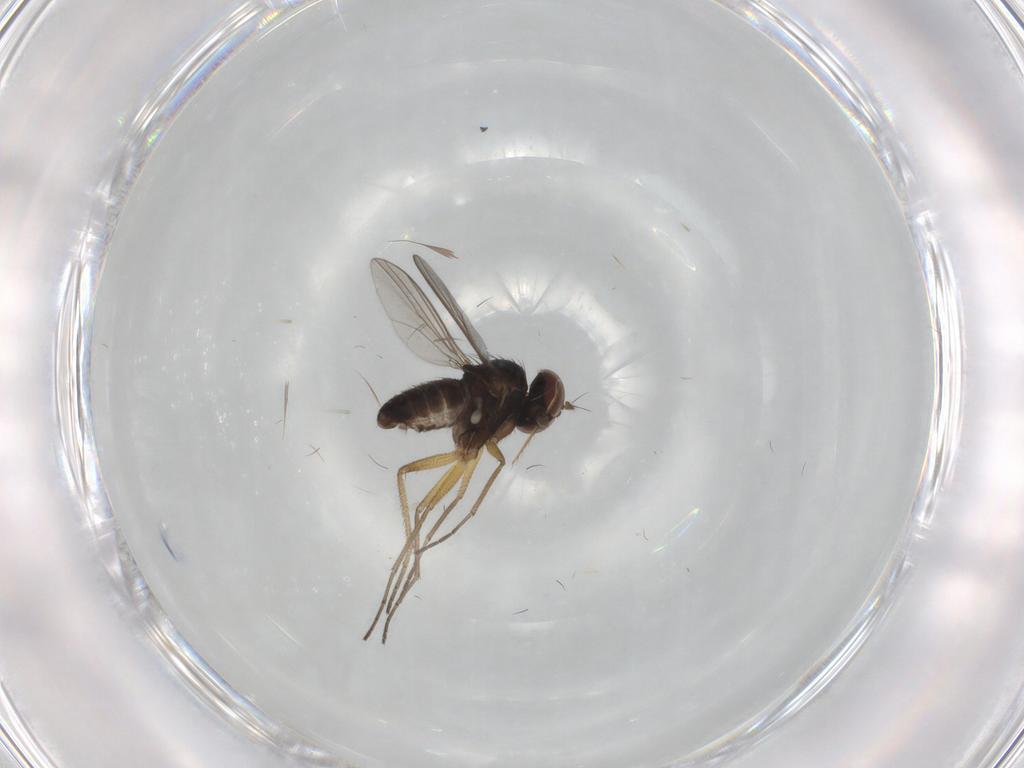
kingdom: Animalia
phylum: Arthropoda
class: Insecta
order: Diptera
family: Dolichopodidae
